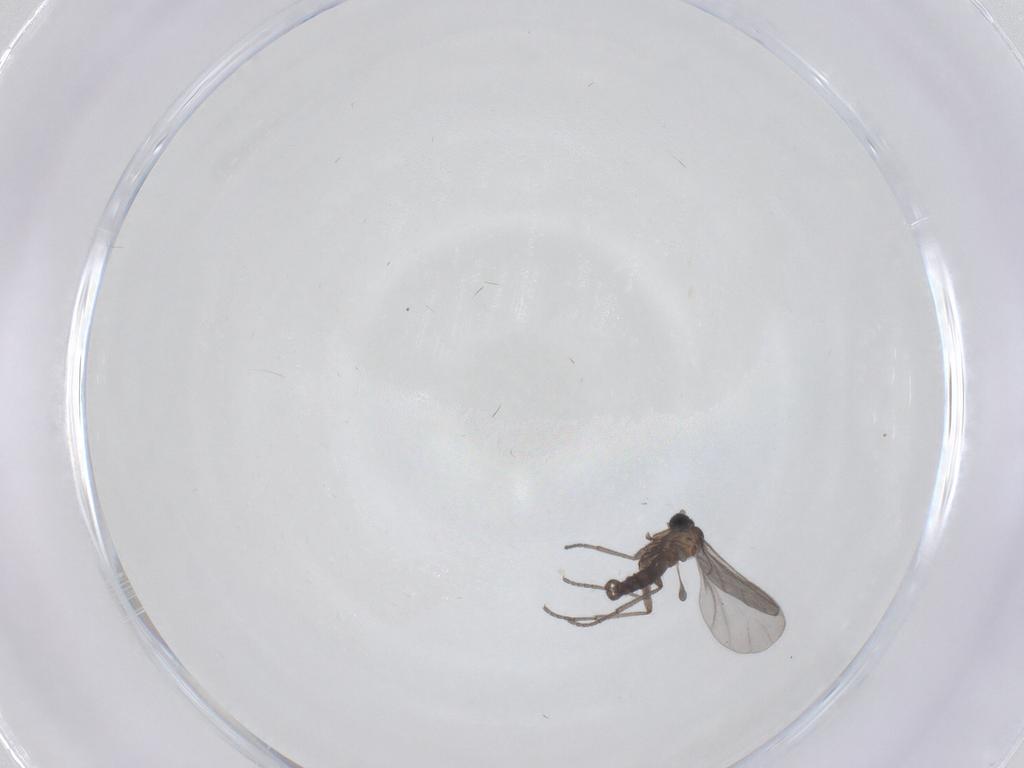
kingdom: Animalia
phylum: Arthropoda
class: Insecta
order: Diptera
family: Sciaridae
